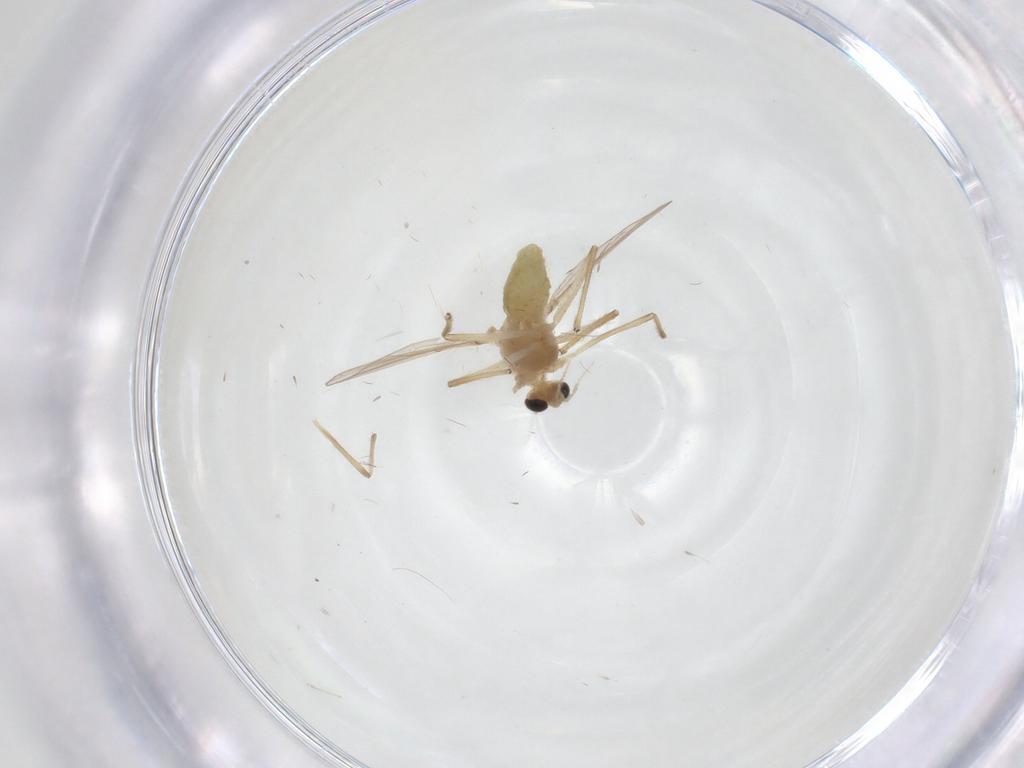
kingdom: Animalia
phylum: Arthropoda
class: Insecta
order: Diptera
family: Chironomidae
